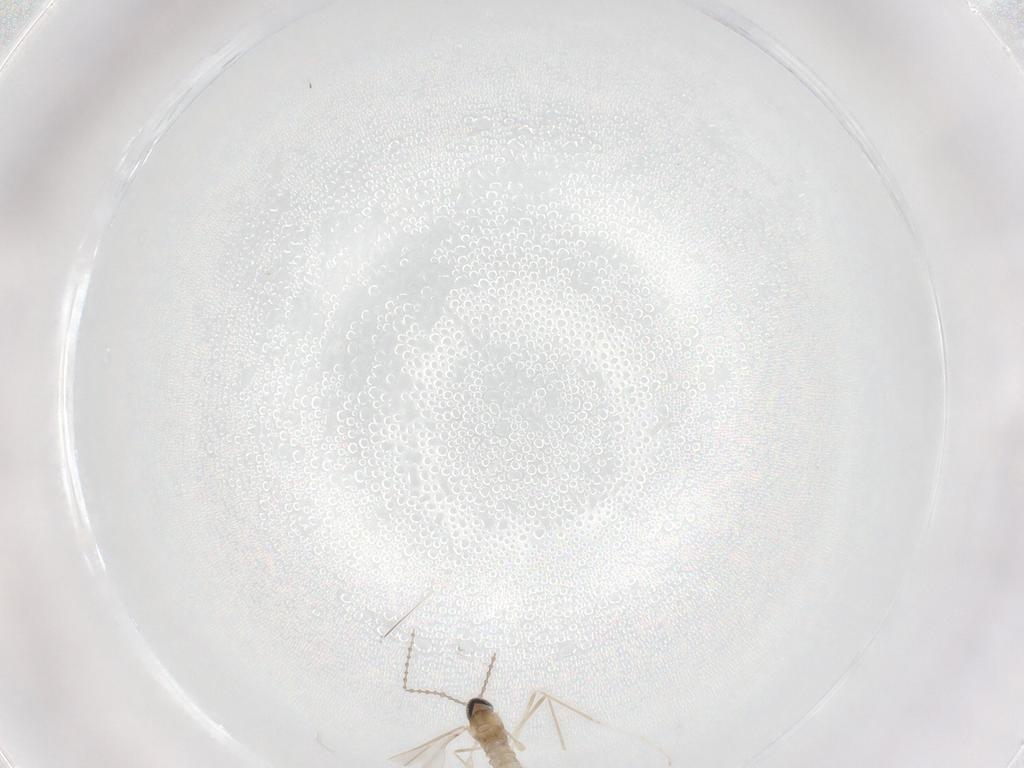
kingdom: Animalia
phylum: Arthropoda
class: Insecta
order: Diptera
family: Cecidomyiidae
